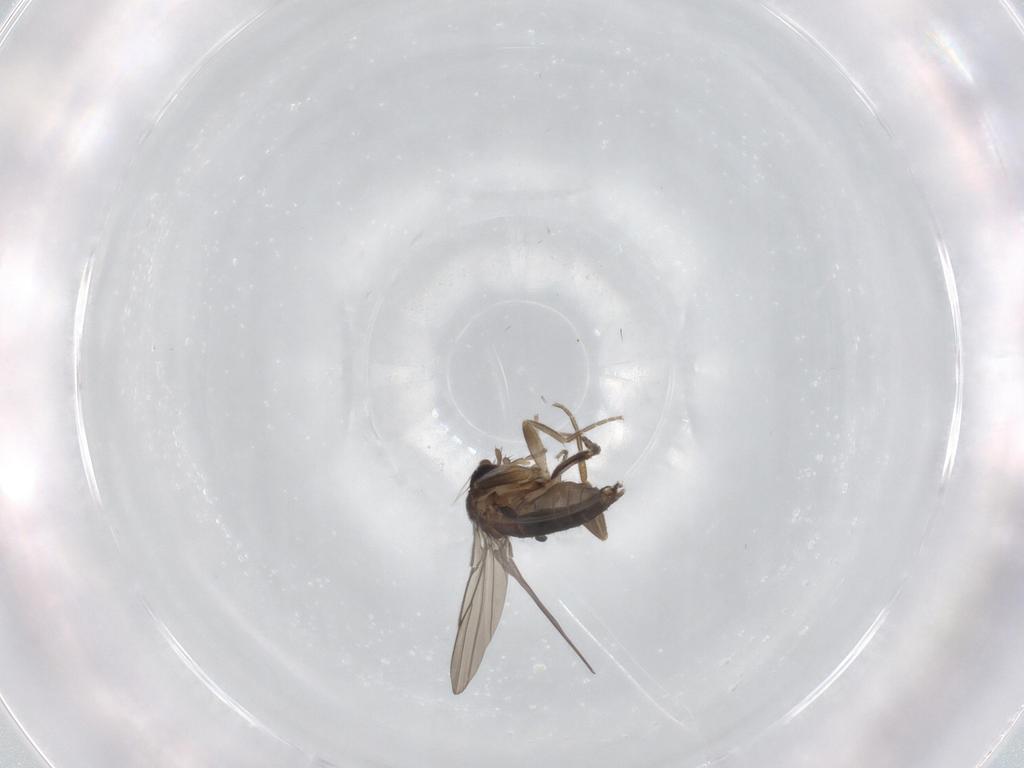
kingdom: Animalia
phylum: Arthropoda
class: Insecta
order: Diptera
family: Phoridae
